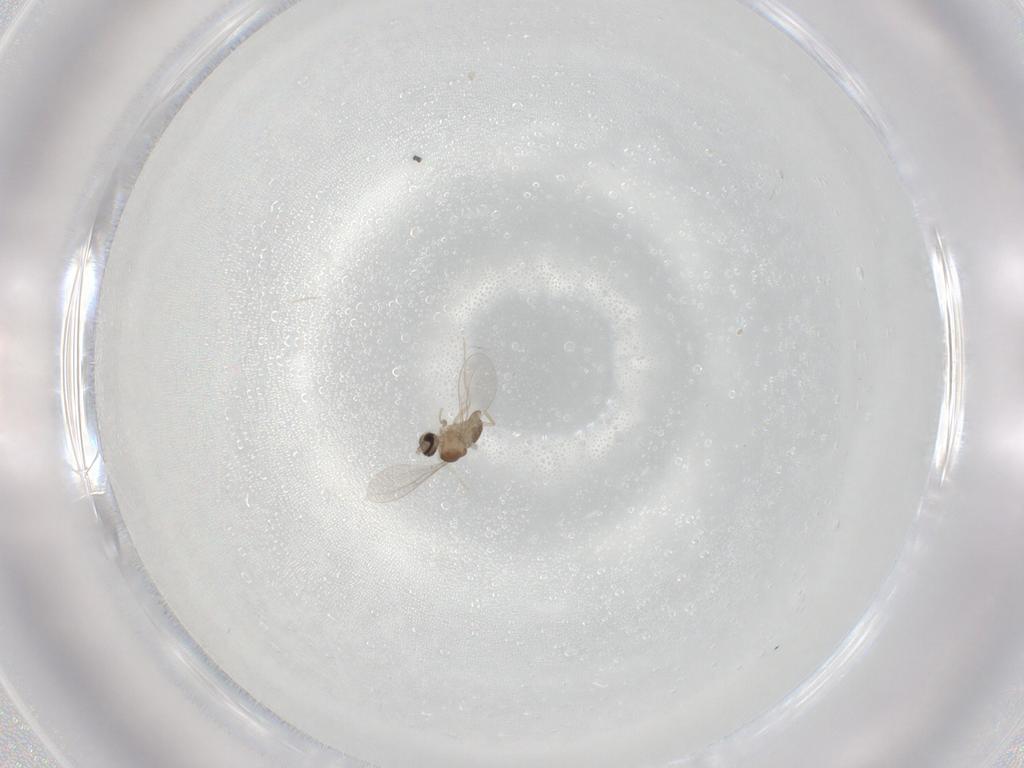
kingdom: Animalia
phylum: Arthropoda
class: Insecta
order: Diptera
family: Cecidomyiidae
